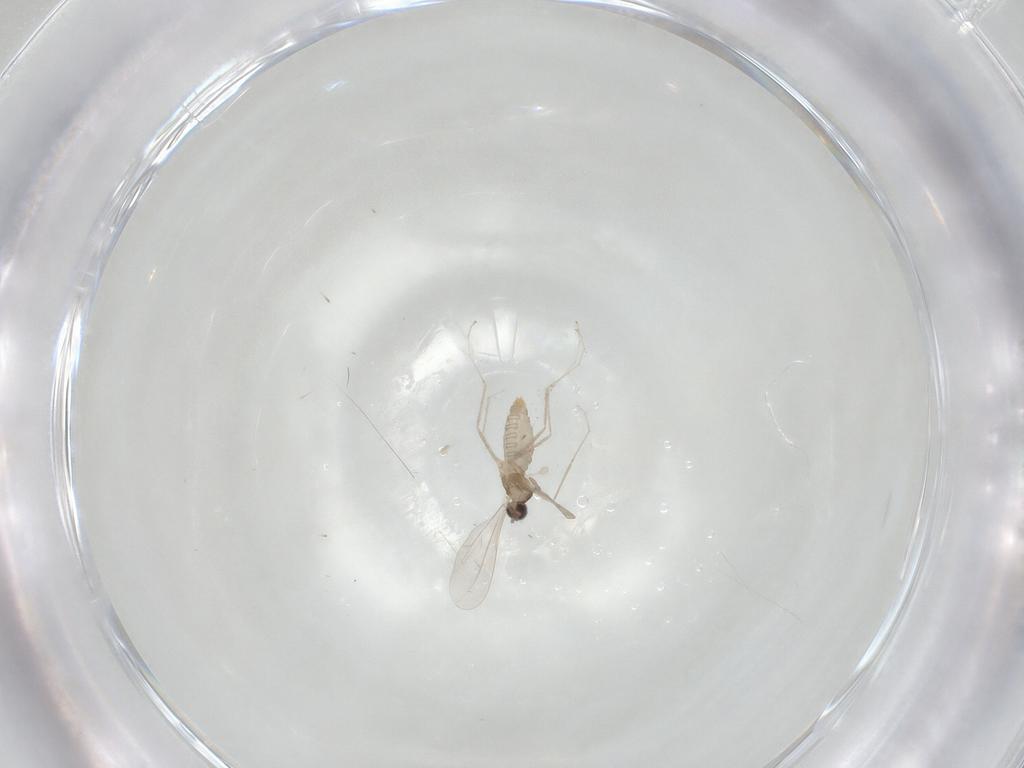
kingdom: Animalia
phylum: Arthropoda
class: Insecta
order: Diptera
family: Chironomidae
